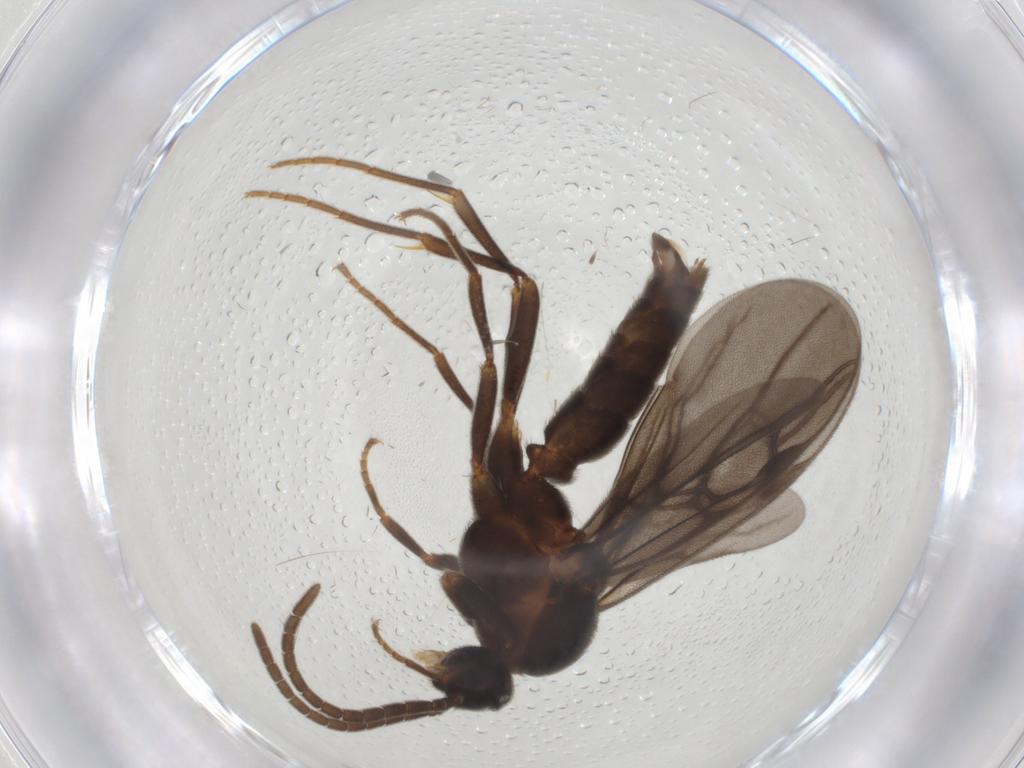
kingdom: Animalia
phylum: Arthropoda
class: Insecta
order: Hymenoptera
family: Formicidae
